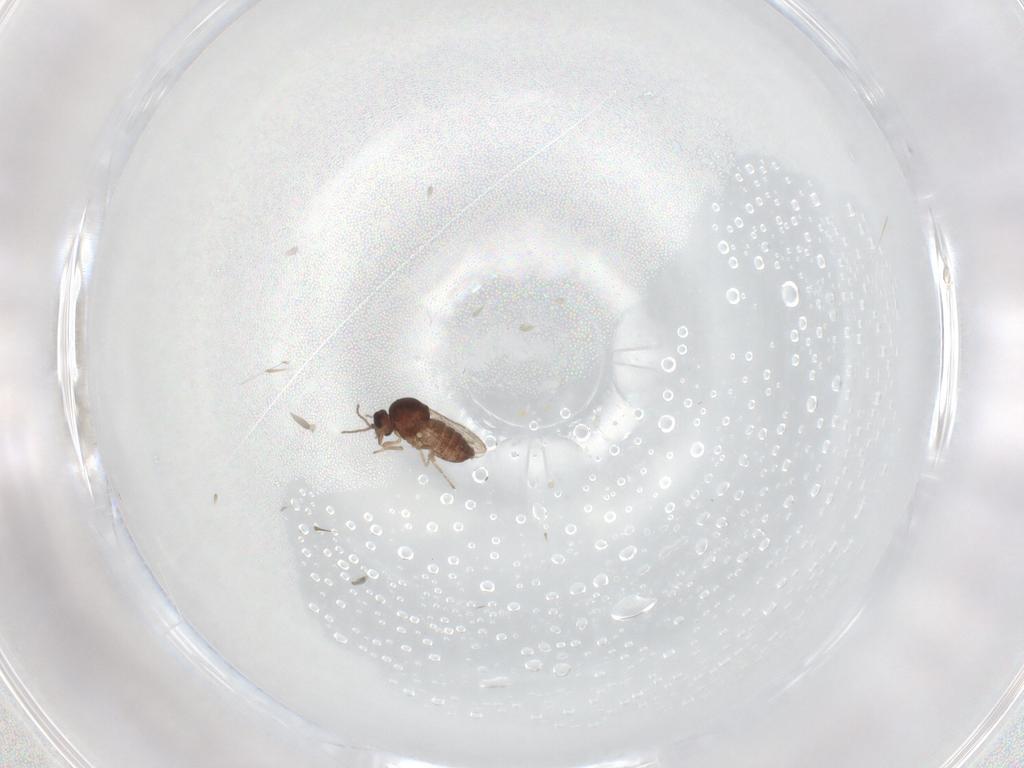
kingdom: Animalia
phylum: Arthropoda
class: Insecta
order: Diptera
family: Ceratopogonidae
